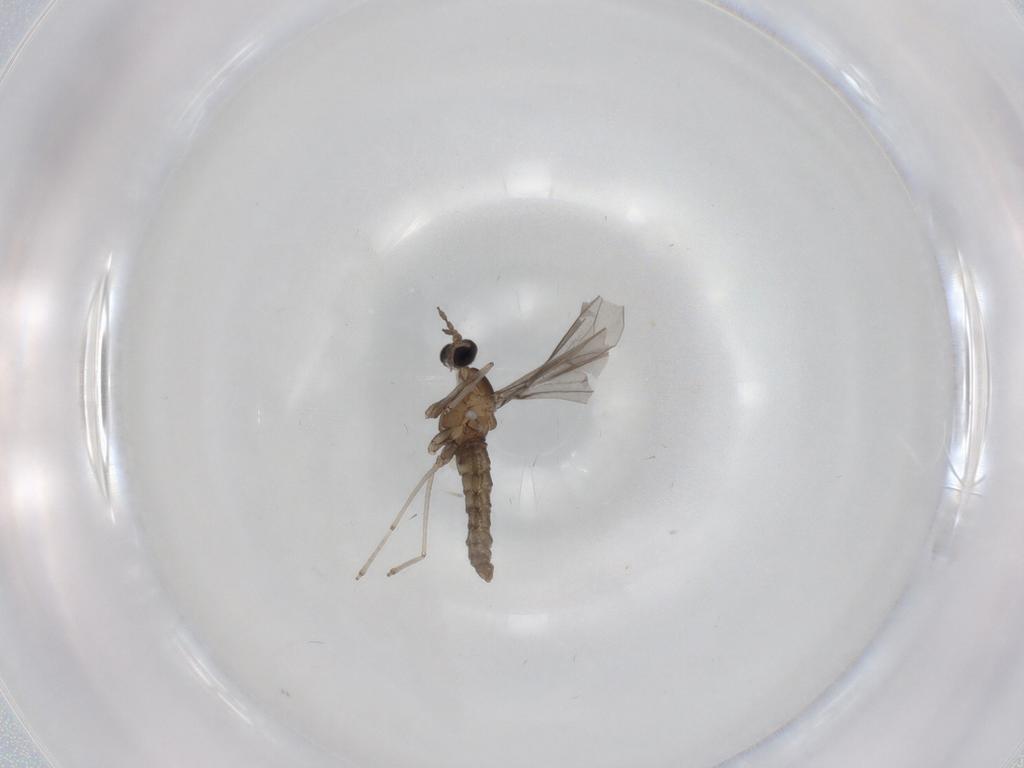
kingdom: Animalia
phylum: Arthropoda
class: Insecta
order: Diptera
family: Cecidomyiidae
